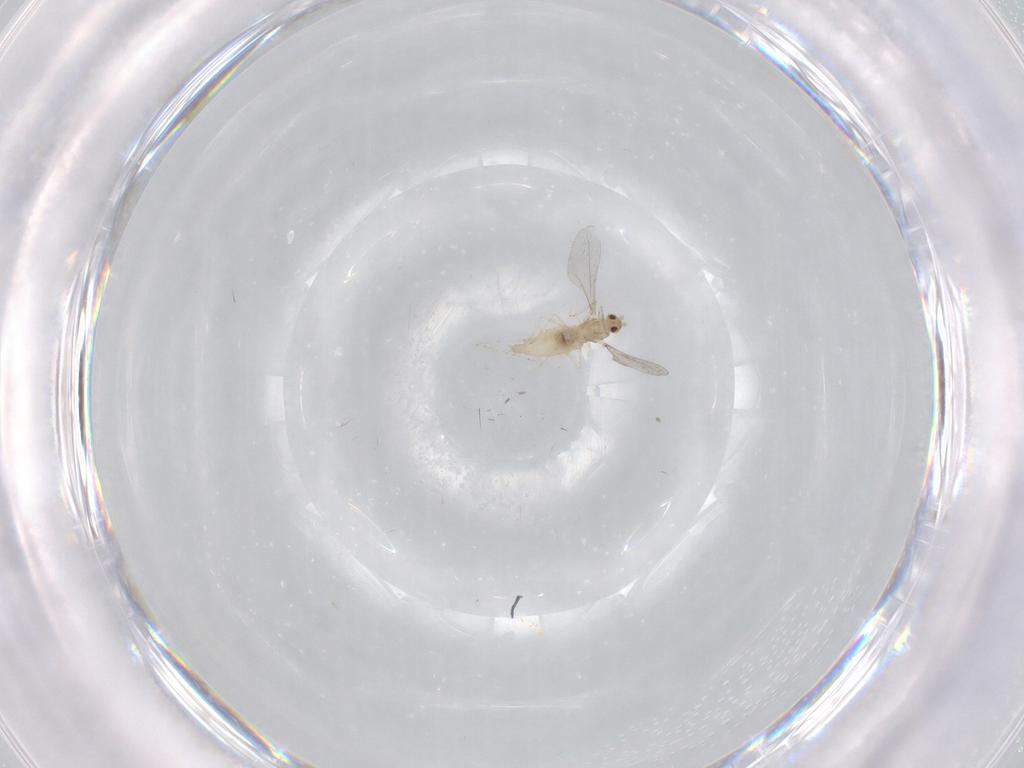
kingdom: Animalia
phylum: Arthropoda
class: Insecta
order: Diptera
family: Cecidomyiidae
